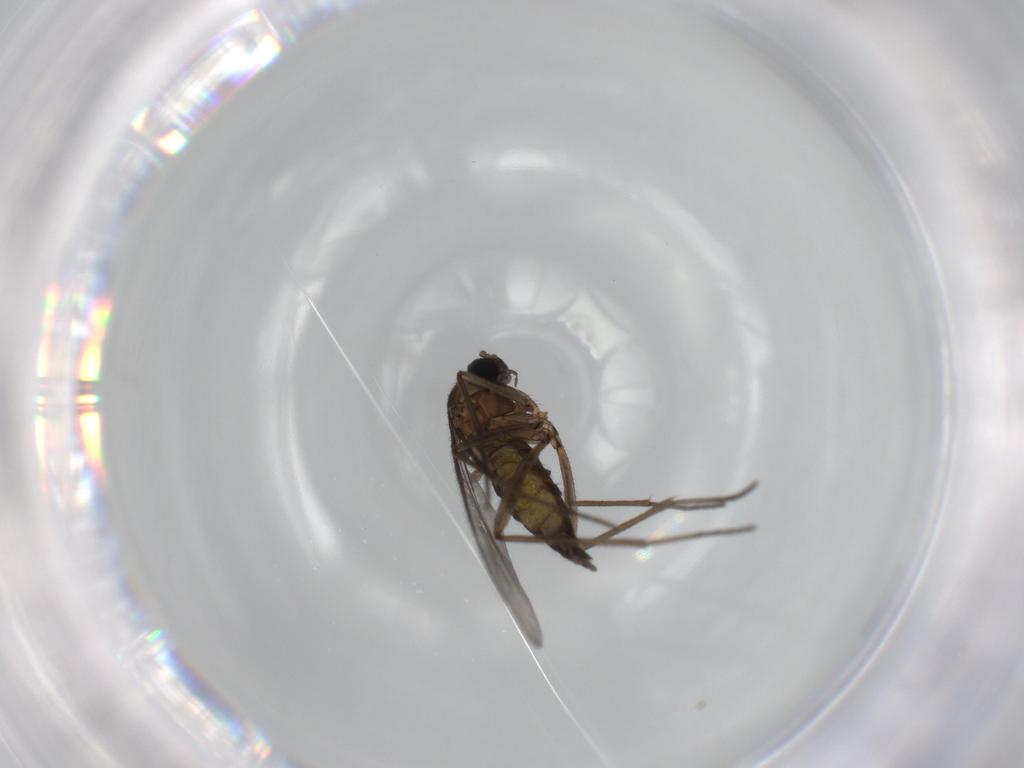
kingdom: Animalia
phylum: Arthropoda
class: Insecta
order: Diptera
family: Sciaridae
